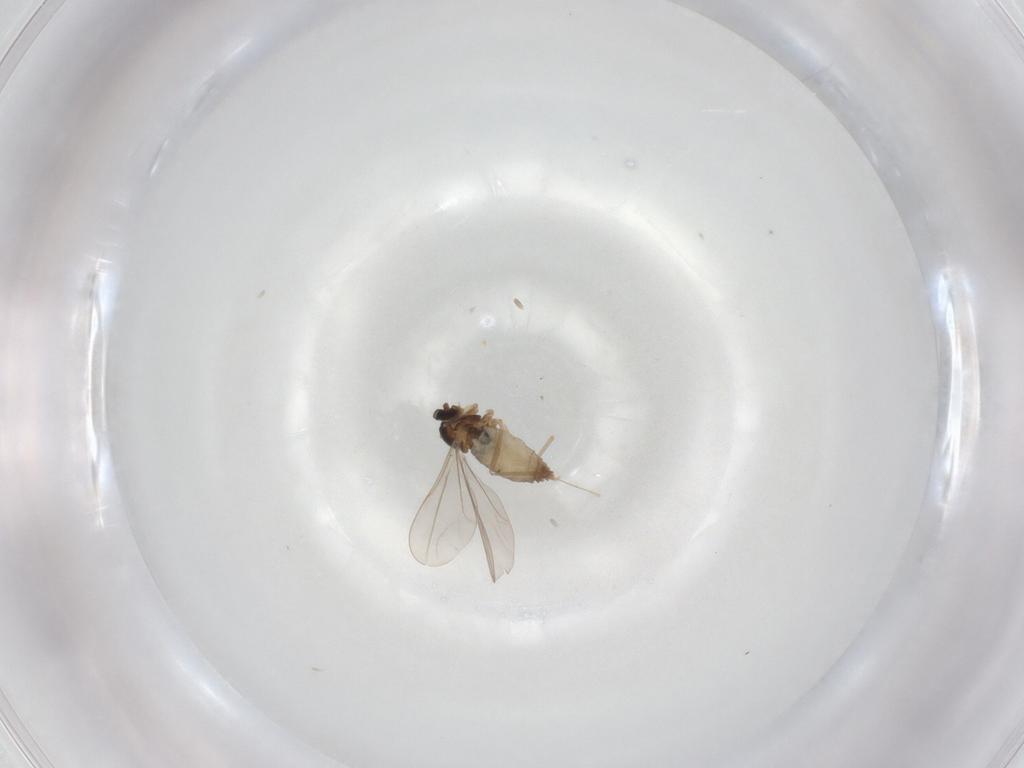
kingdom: Animalia
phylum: Arthropoda
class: Insecta
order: Diptera
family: Cecidomyiidae
